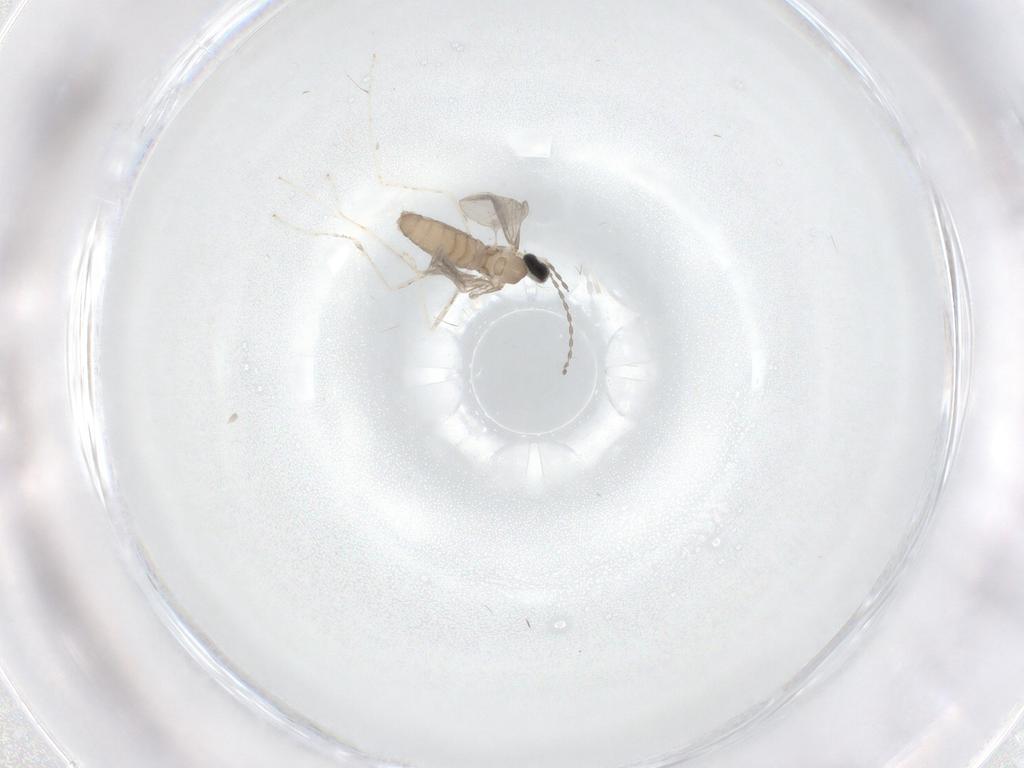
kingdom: Animalia
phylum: Arthropoda
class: Insecta
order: Diptera
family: Cecidomyiidae
